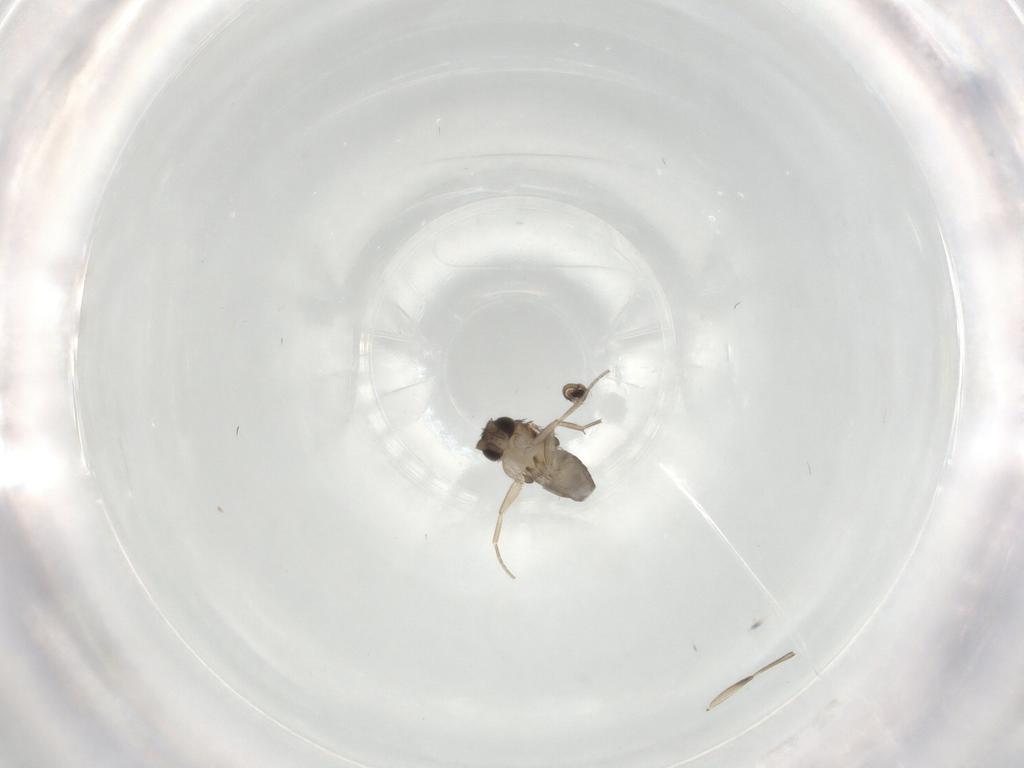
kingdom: Animalia
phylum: Arthropoda
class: Insecta
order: Diptera
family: Phoridae
